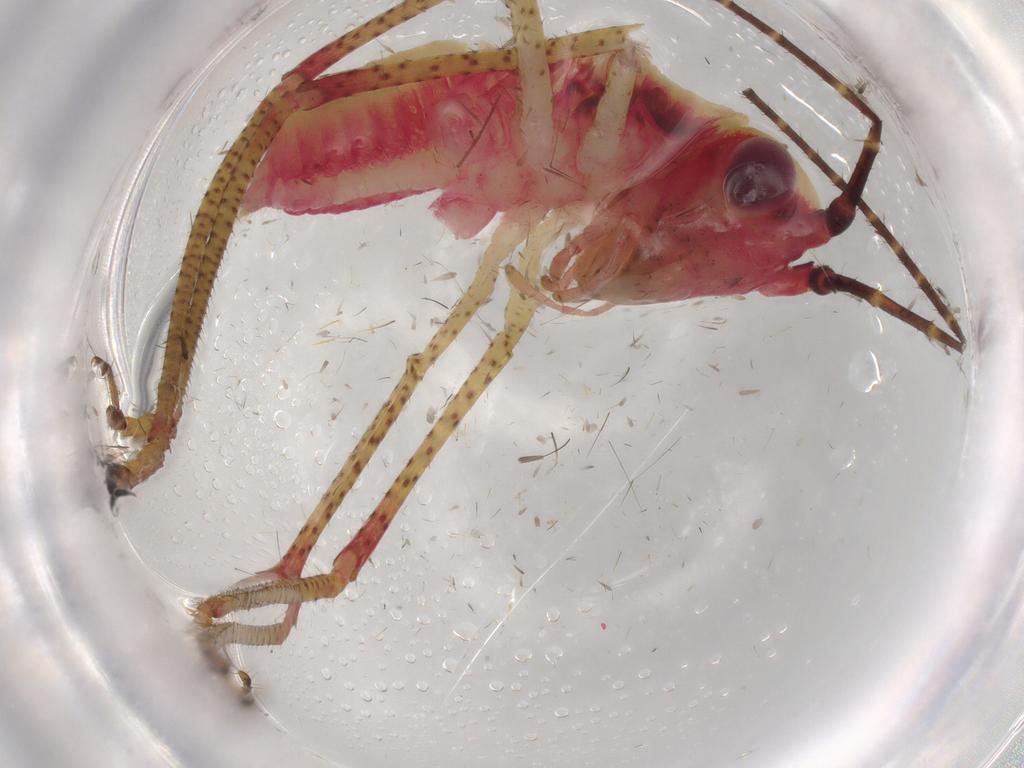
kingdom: Animalia
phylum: Arthropoda
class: Insecta
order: Orthoptera
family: Tettigoniidae
